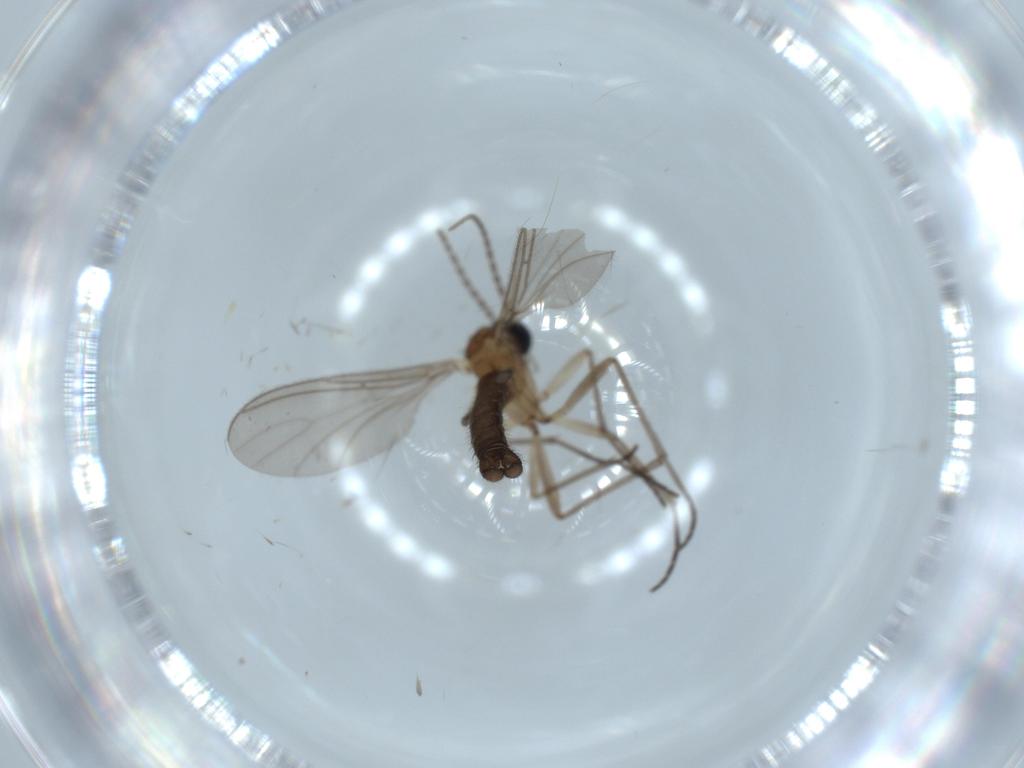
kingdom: Animalia
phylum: Arthropoda
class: Insecta
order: Diptera
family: Sciaridae
